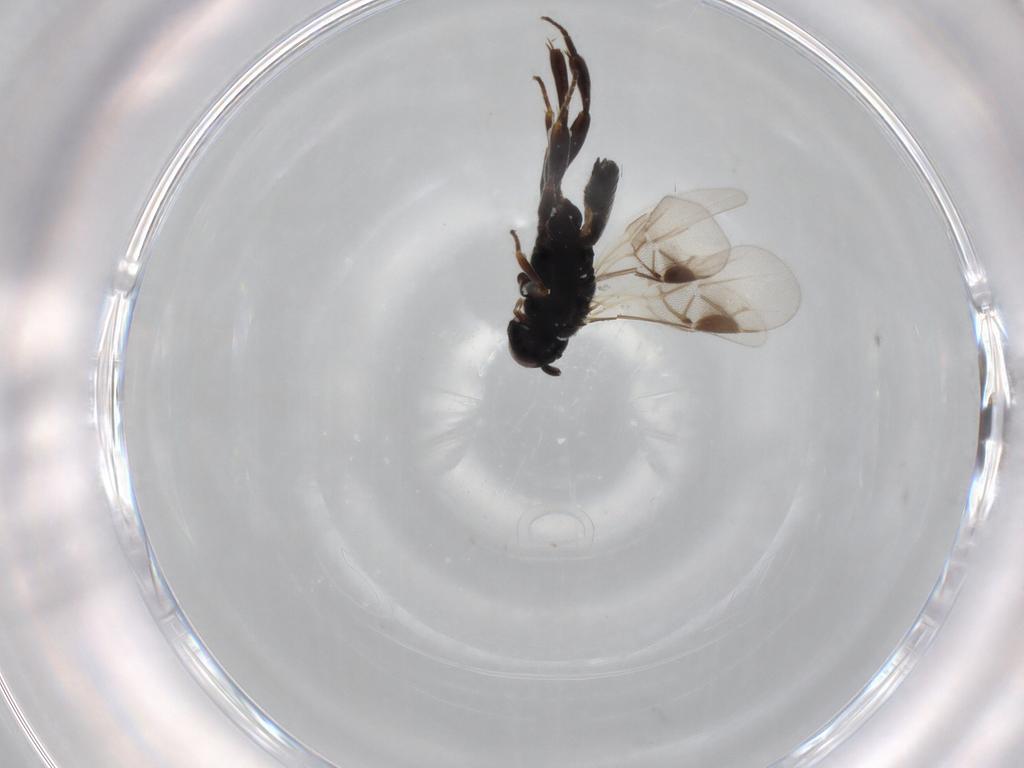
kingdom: Animalia
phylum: Arthropoda
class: Insecta
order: Hymenoptera
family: Braconidae
